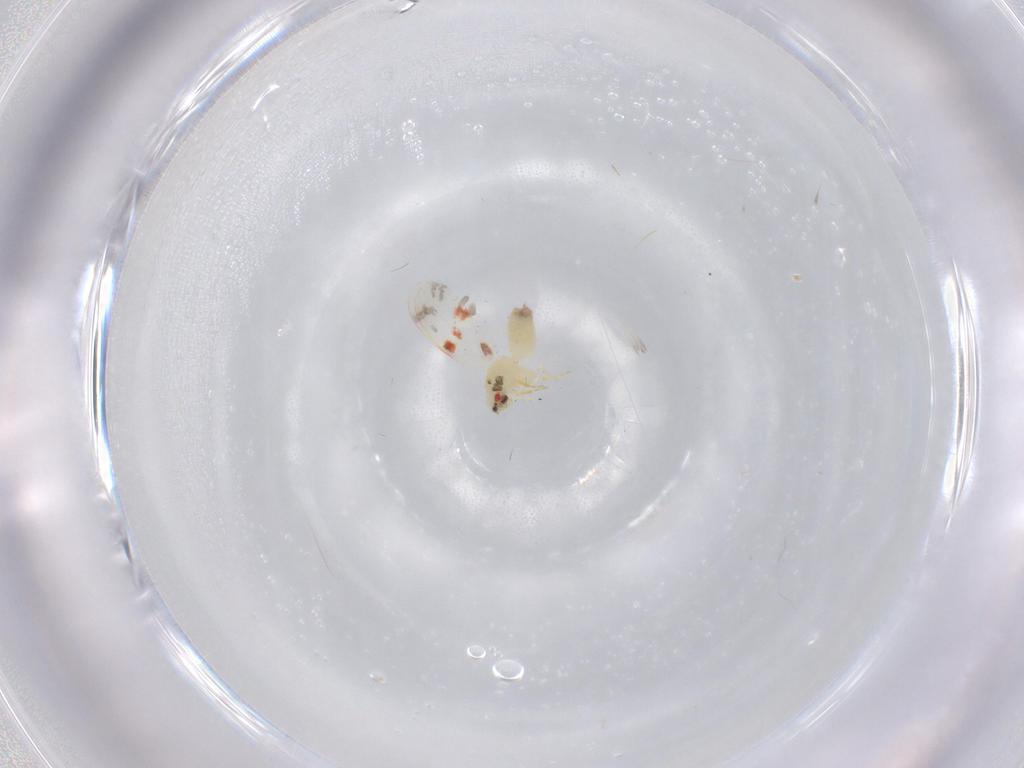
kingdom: Animalia
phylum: Arthropoda
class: Insecta
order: Hemiptera
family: Aleyrodidae
